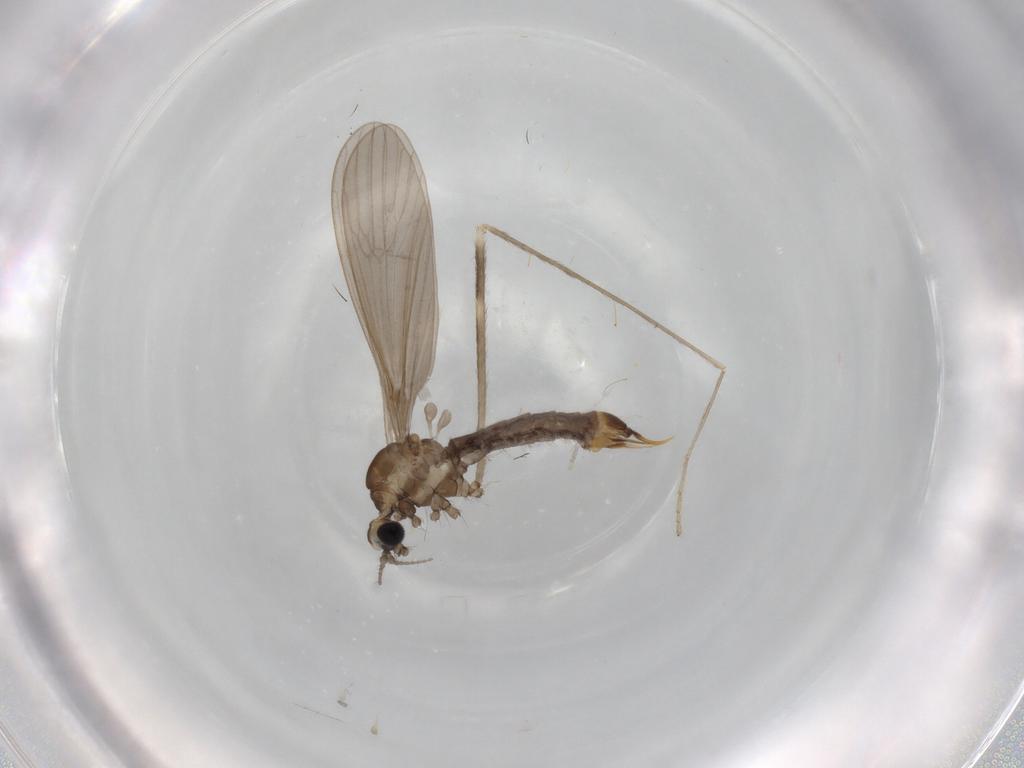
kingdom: Animalia
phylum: Arthropoda
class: Insecta
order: Diptera
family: Limoniidae
